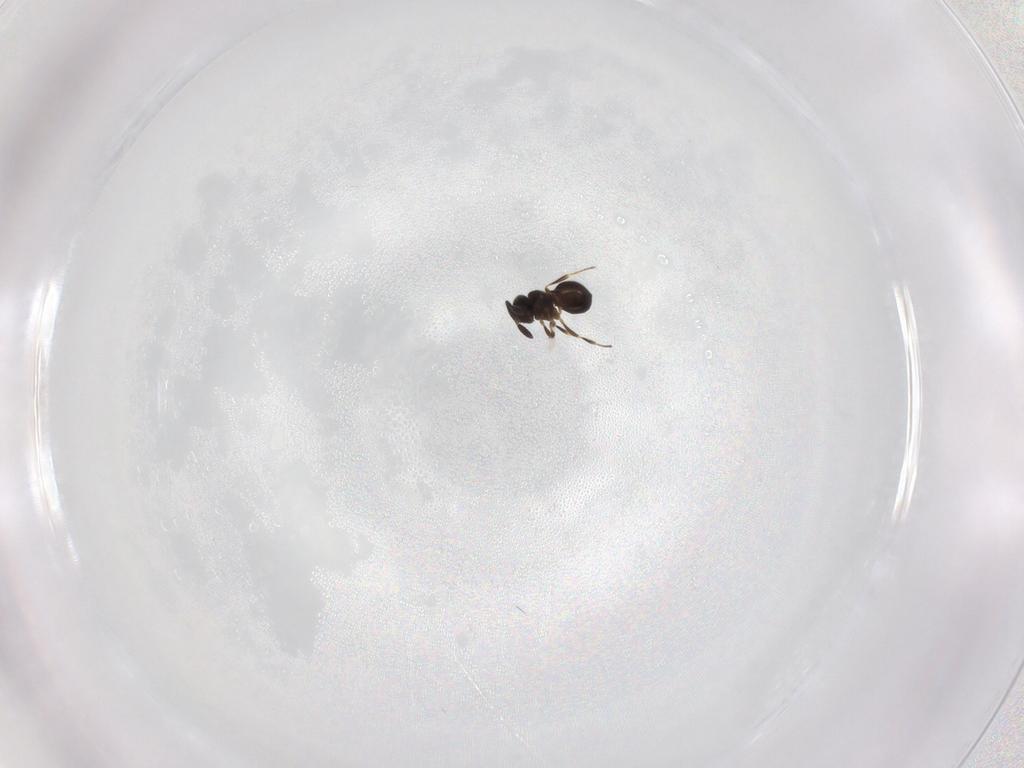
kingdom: Animalia
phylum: Arthropoda
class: Insecta
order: Hymenoptera
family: Scelionidae
